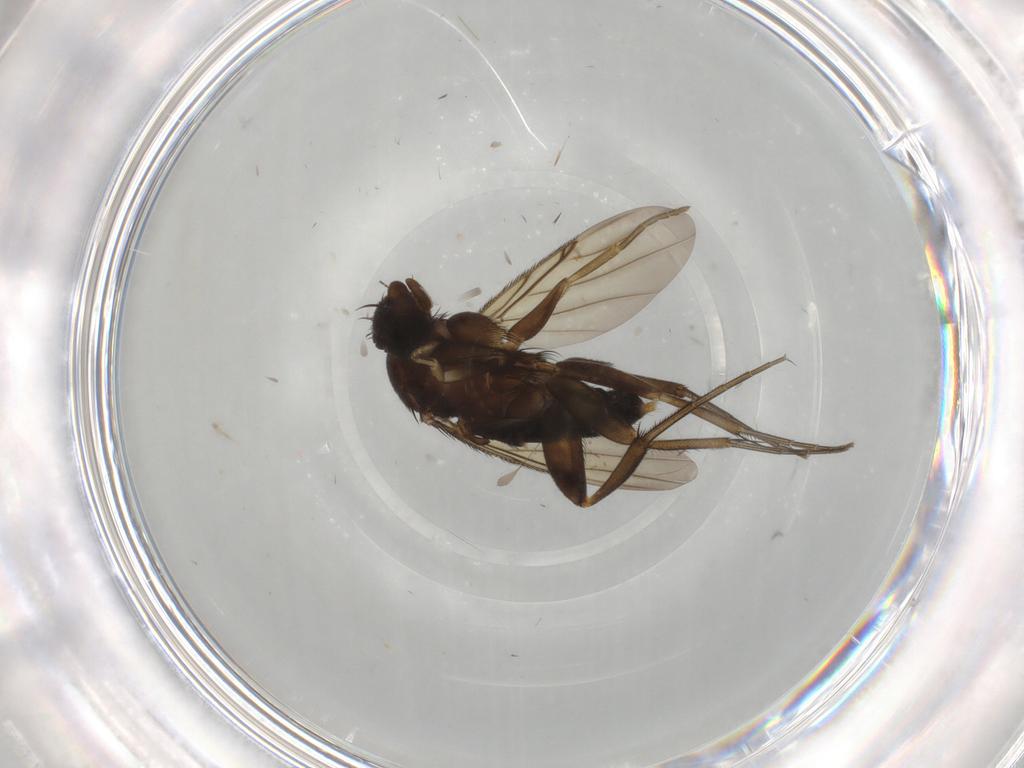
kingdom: Animalia
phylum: Arthropoda
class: Insecta
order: Diptera
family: Phoridae
